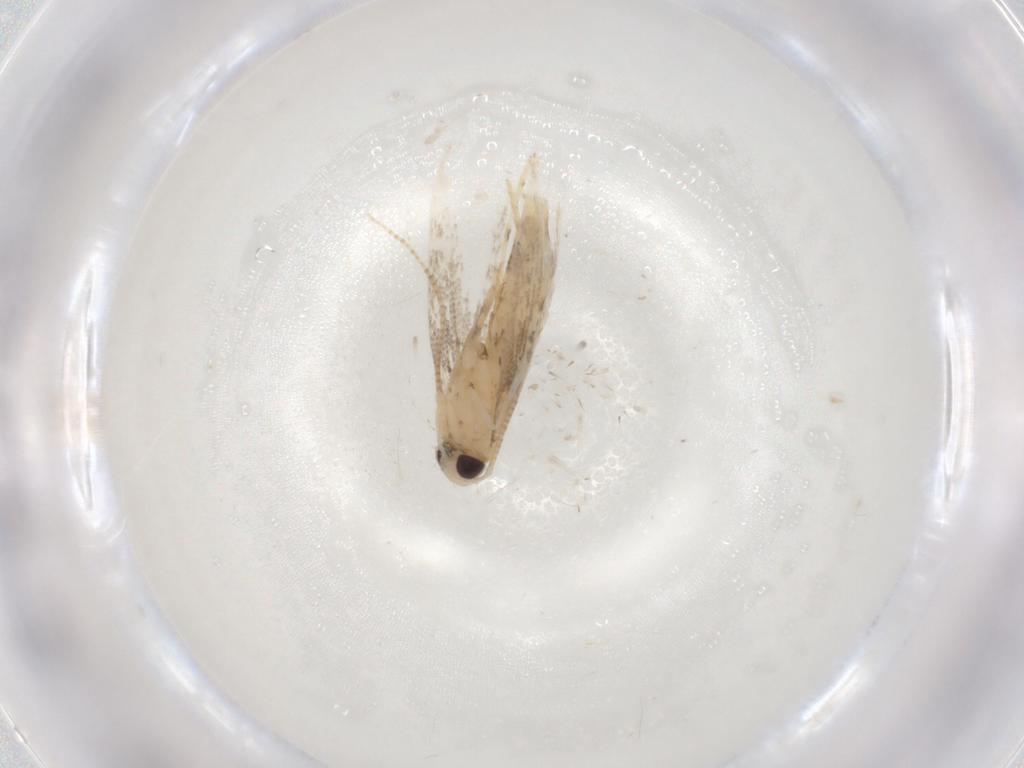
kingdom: Animalia
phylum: Arthropoda
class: Insecta
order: Lepidoptera
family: Gracillariidae
